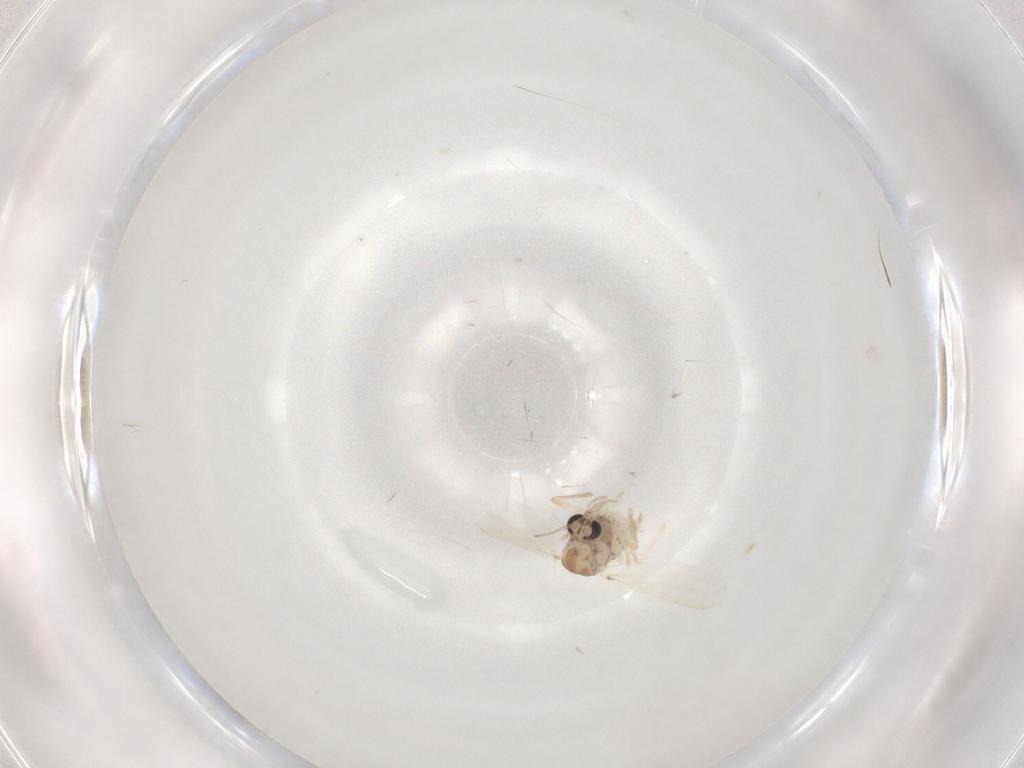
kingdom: Animalia
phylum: Arthropoda
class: Insecta
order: Diptera
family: Chironomidae
